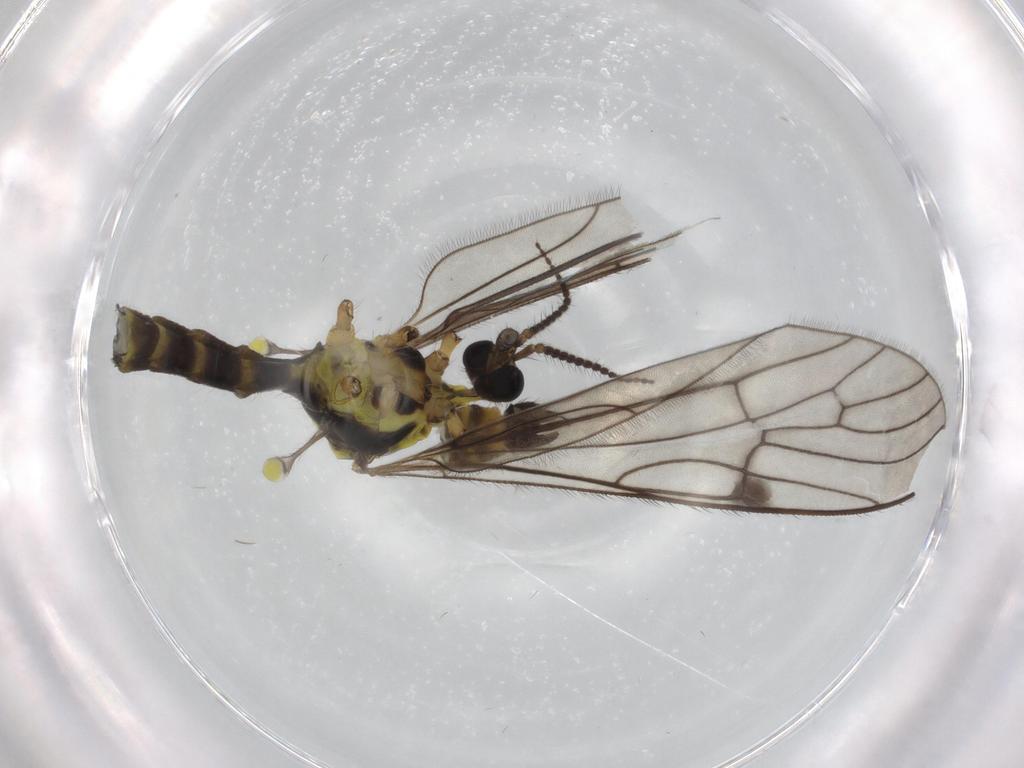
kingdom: Animalia
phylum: Arthropoda
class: Insecta
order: Diptera
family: Limoniidae
